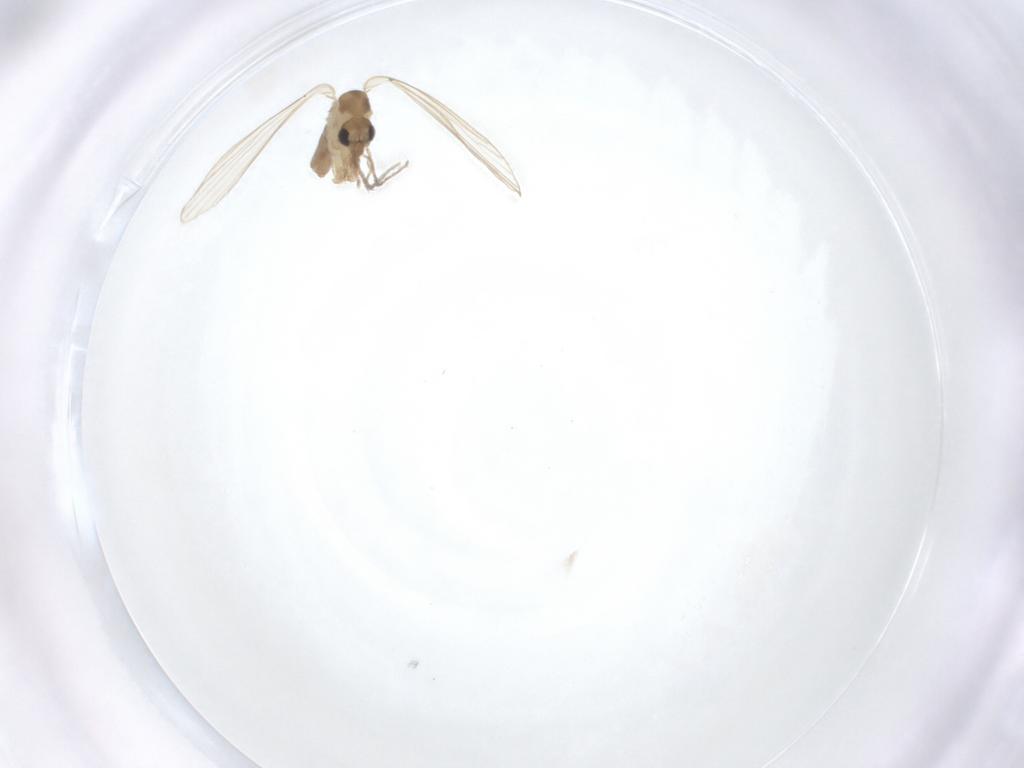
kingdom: Animalia
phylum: Arthropoda
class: Insecta
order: Diptera
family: Psychodidae
